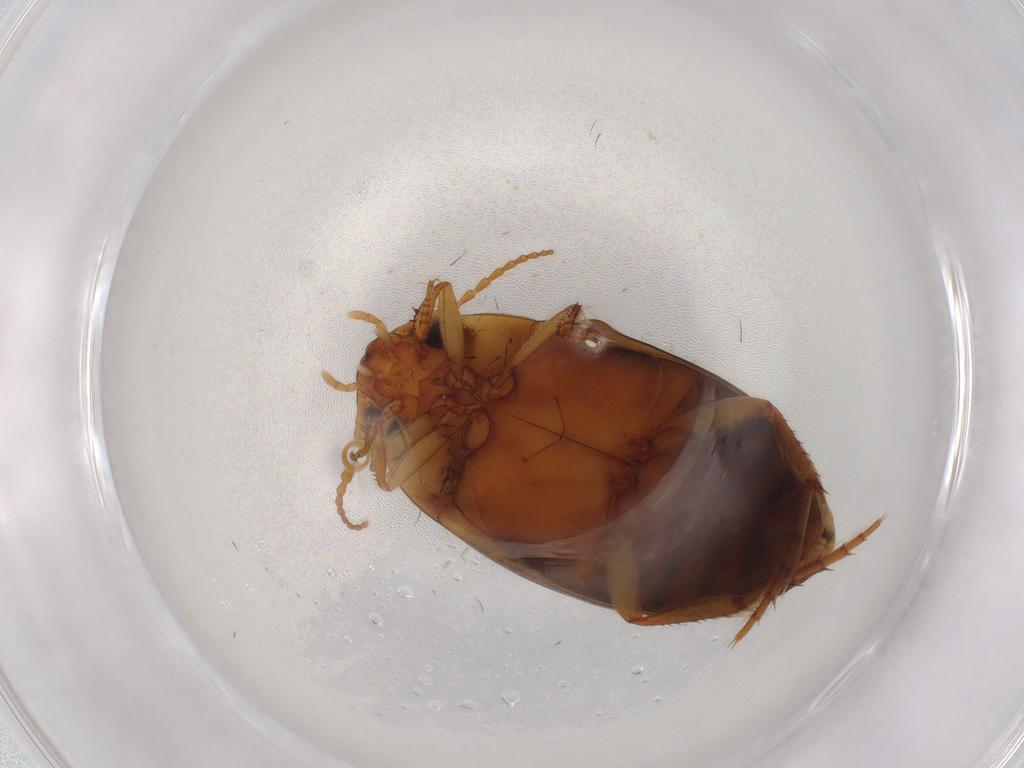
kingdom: Animalia
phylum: Arthropoda
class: Insecta
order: Coleoptera
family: Dytiscidae
